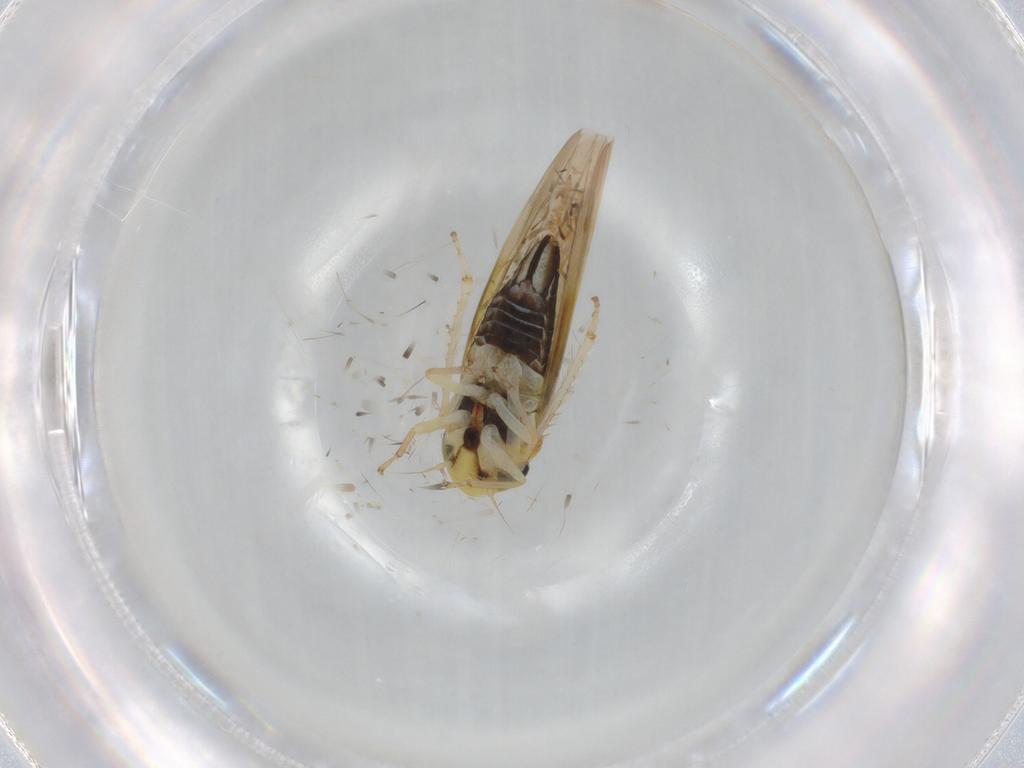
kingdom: Animalia
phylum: Arthropoda
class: Insecta
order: Hemiptera
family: Cicadellidae
